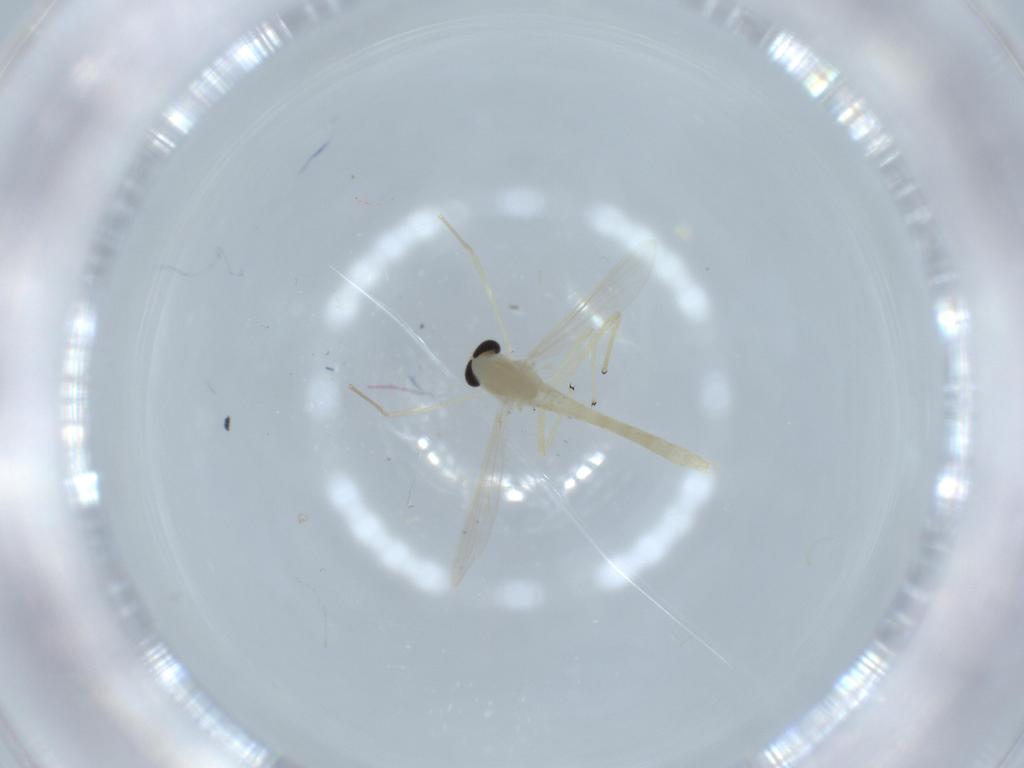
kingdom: Animalia
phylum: Arthropoda
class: Insecta
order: Diptera
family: Chironomidae
